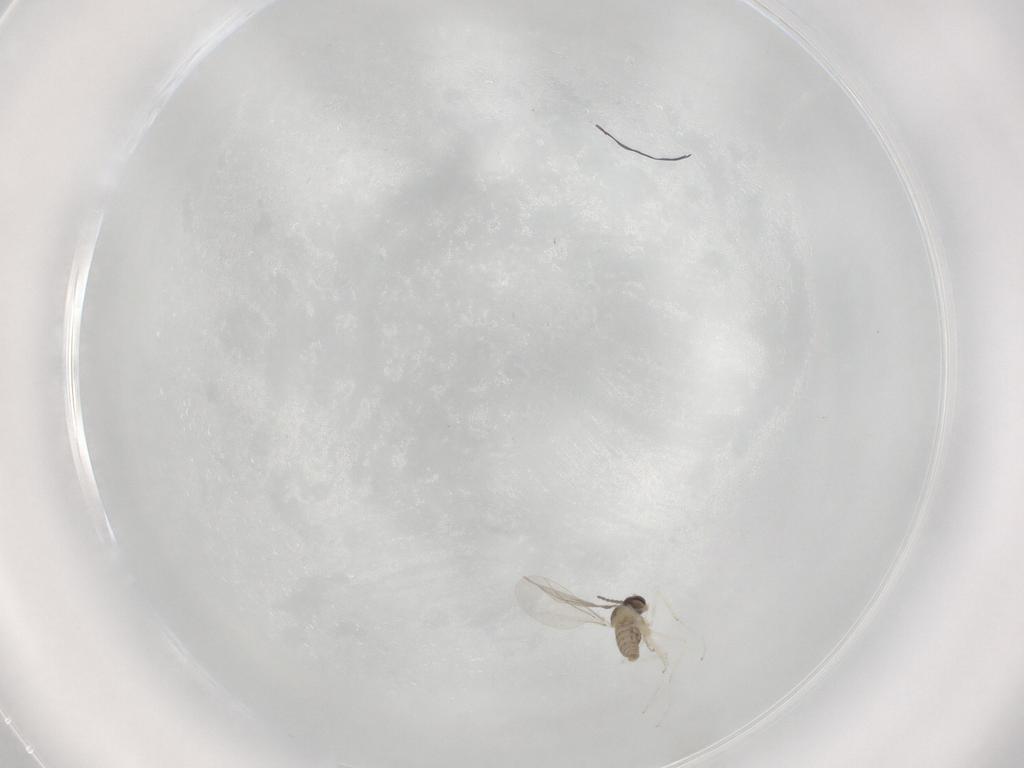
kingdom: Animalia
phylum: Arthropoda
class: Insecta
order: Diptera
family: Cecidomyiidae
